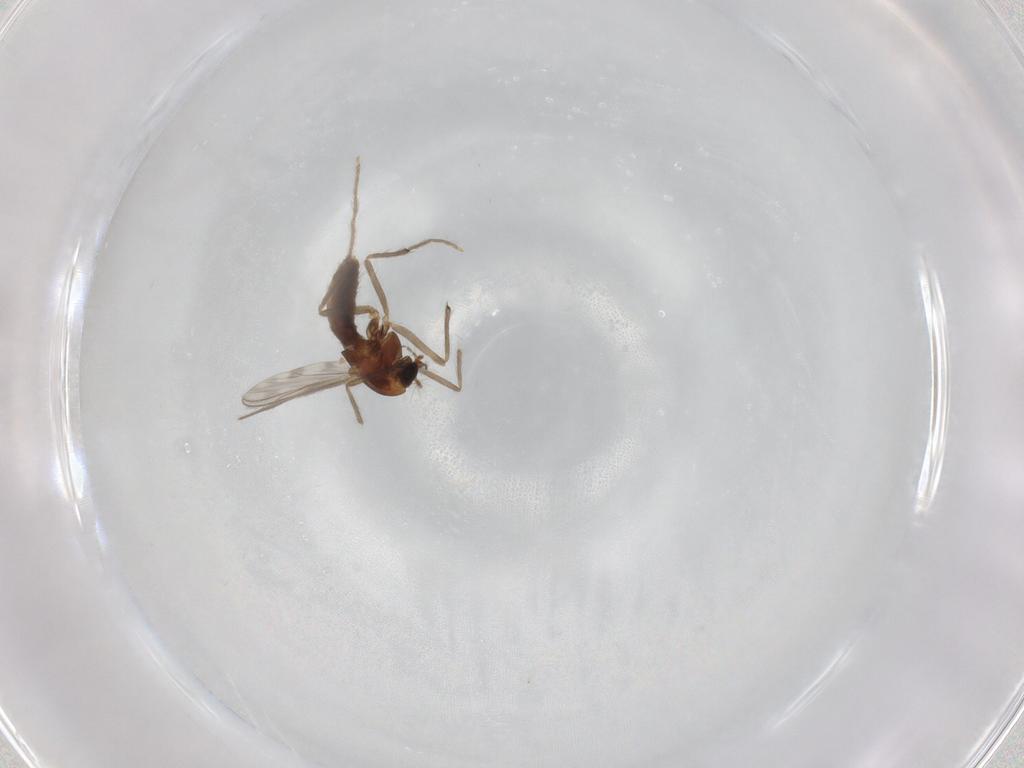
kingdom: Animalia
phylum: Arthropoda
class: Insecta
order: Diptera
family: Chironomidae
